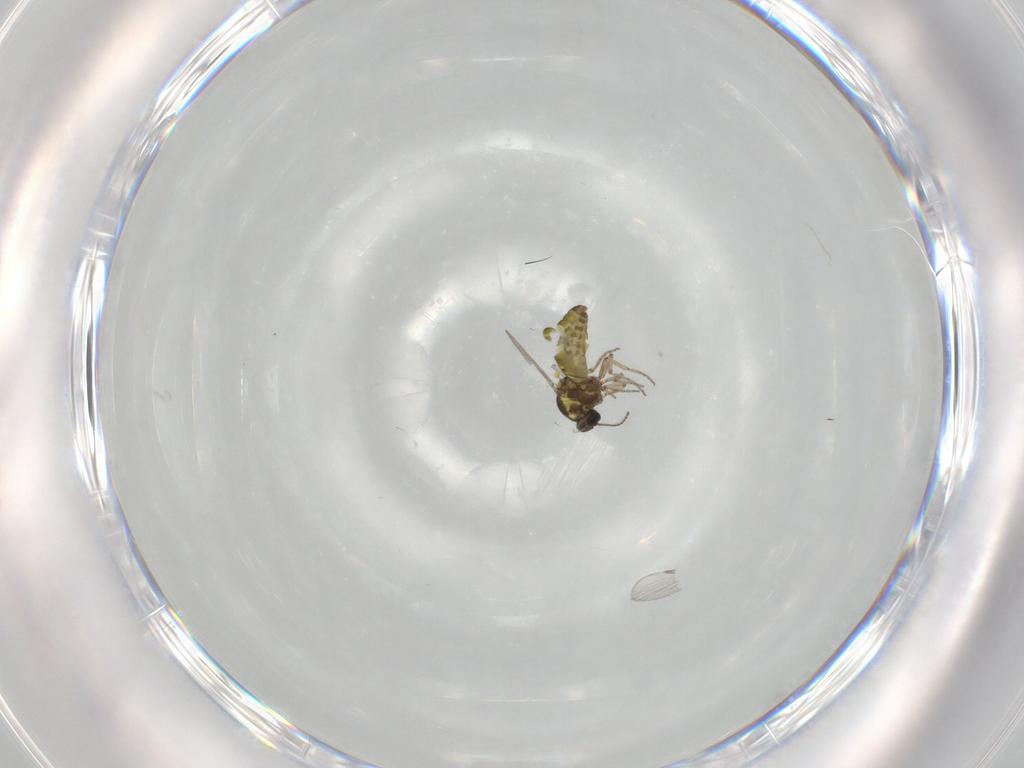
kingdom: Animalia
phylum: Arthropoda
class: Insecta
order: Diptera
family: Ceratopogonidae
